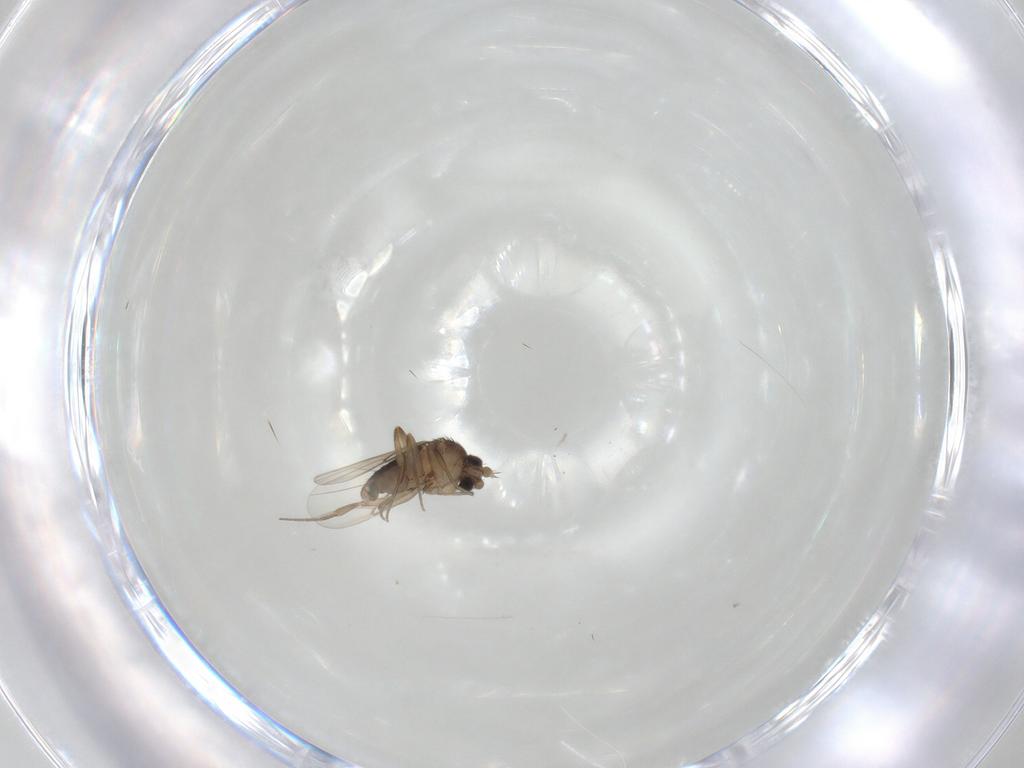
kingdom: Animalia
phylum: Arthropoda
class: Insecta
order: Diptera
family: Phoridae
